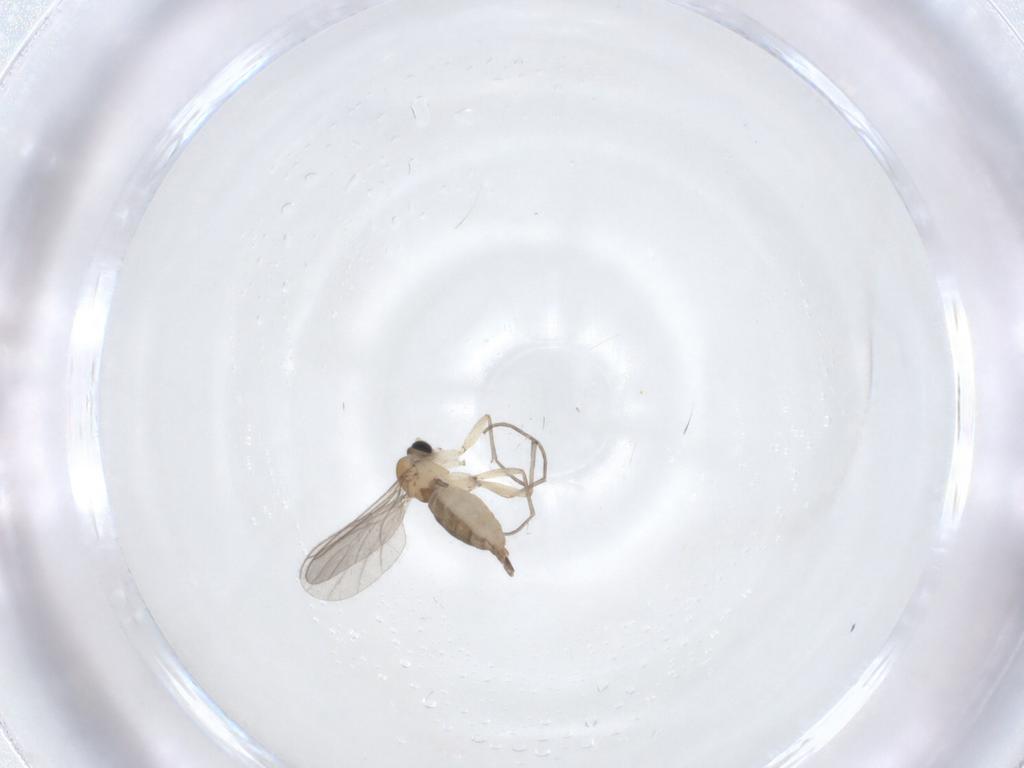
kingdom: Animalia
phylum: Arthropoda
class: Insecta
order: Diptera
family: Sciaridae
